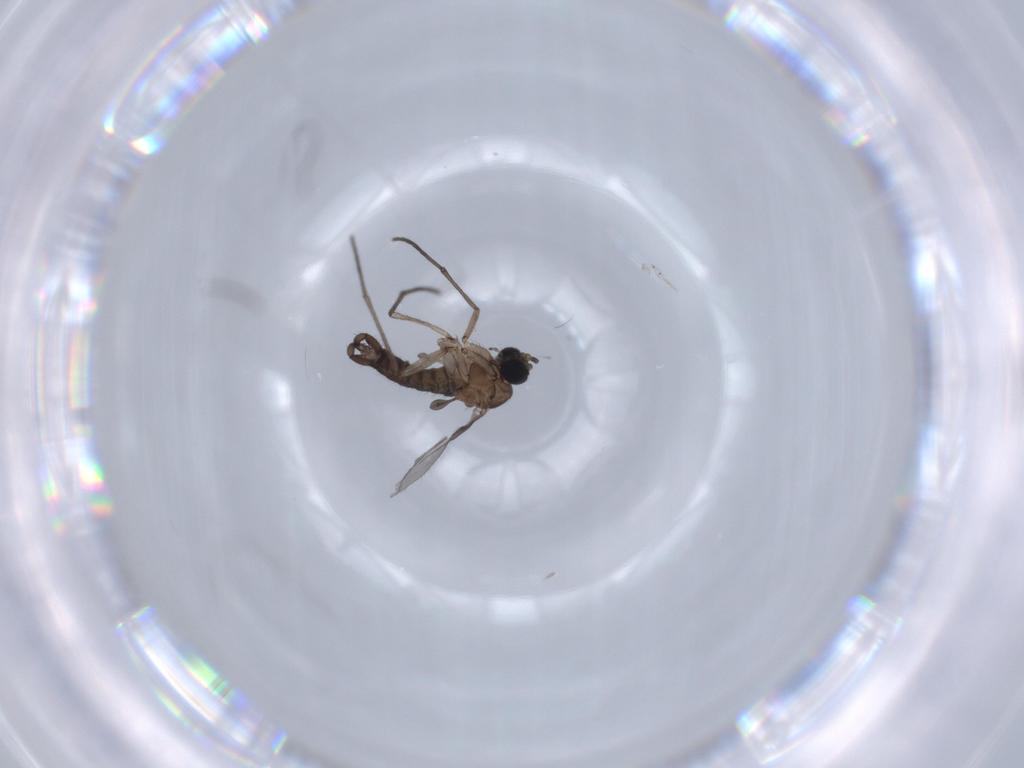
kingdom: Animalia
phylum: Arthropoda
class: Insecta
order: Diptera
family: Sciaridae
